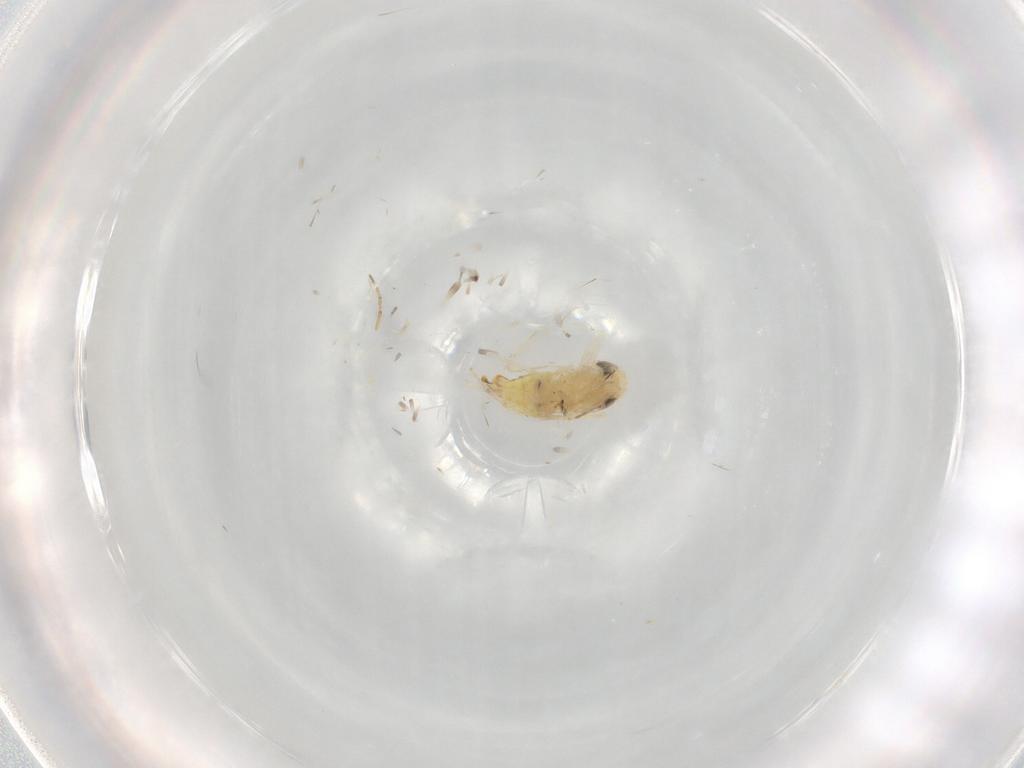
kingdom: Animalia
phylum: Arthropoda
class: Insecta
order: Hemiptera
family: Cicadellidae
